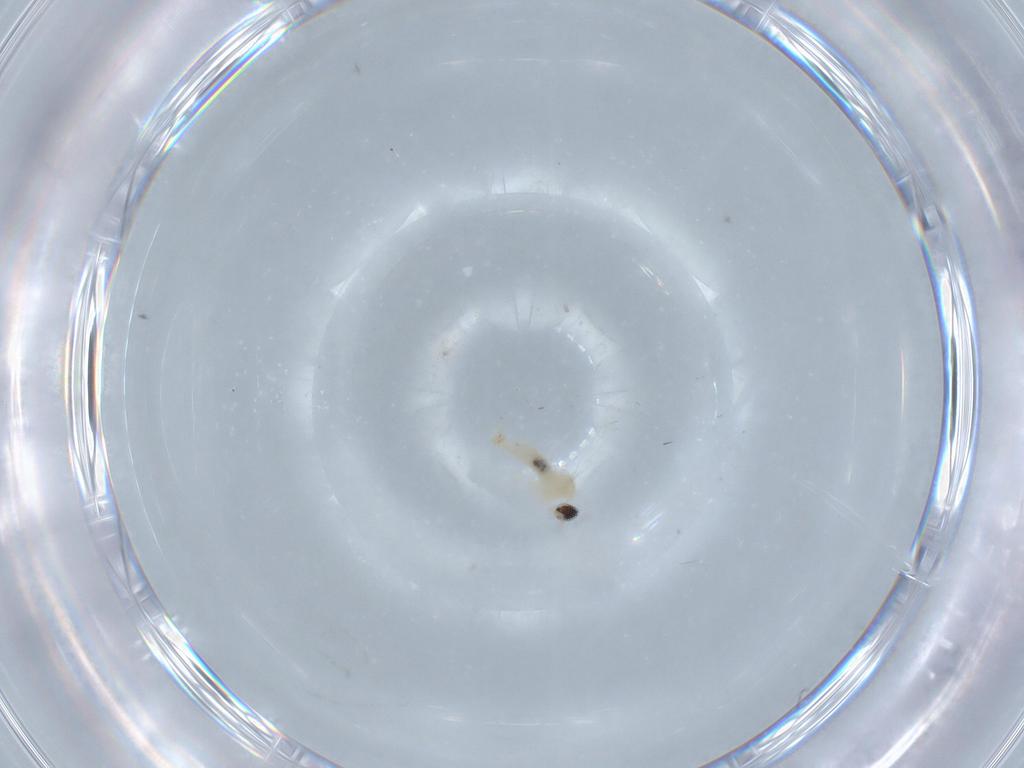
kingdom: Animalia
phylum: Arthropoda
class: Insecta
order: Diptera
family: Cecidomyiidae
